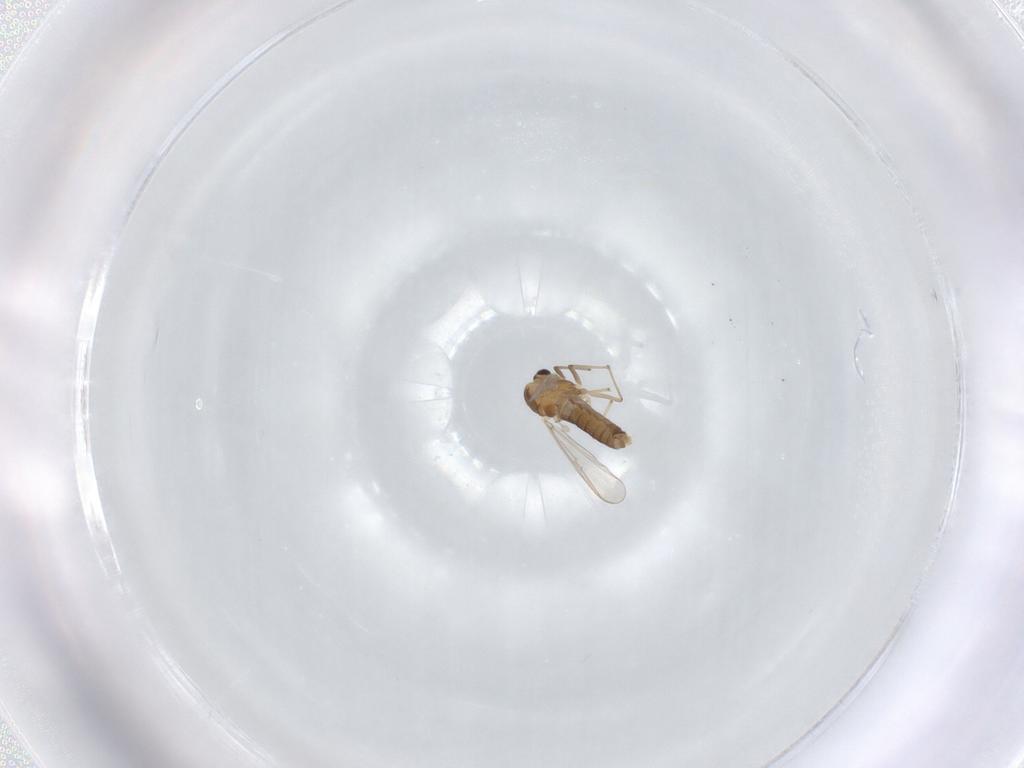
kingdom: Animalia
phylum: Arthropoda
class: Insecta
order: Diptera
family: Chironomidae
